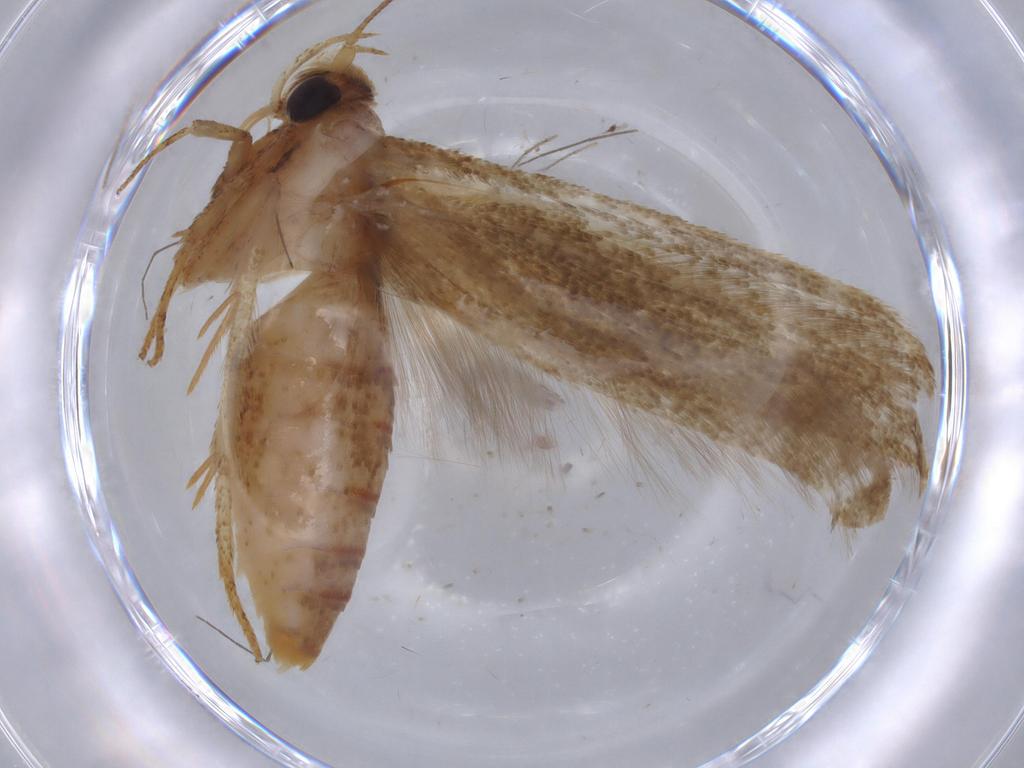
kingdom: Animalia
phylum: Arthropoda
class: Insecta
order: Lepidoptera
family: Blastobasidae
